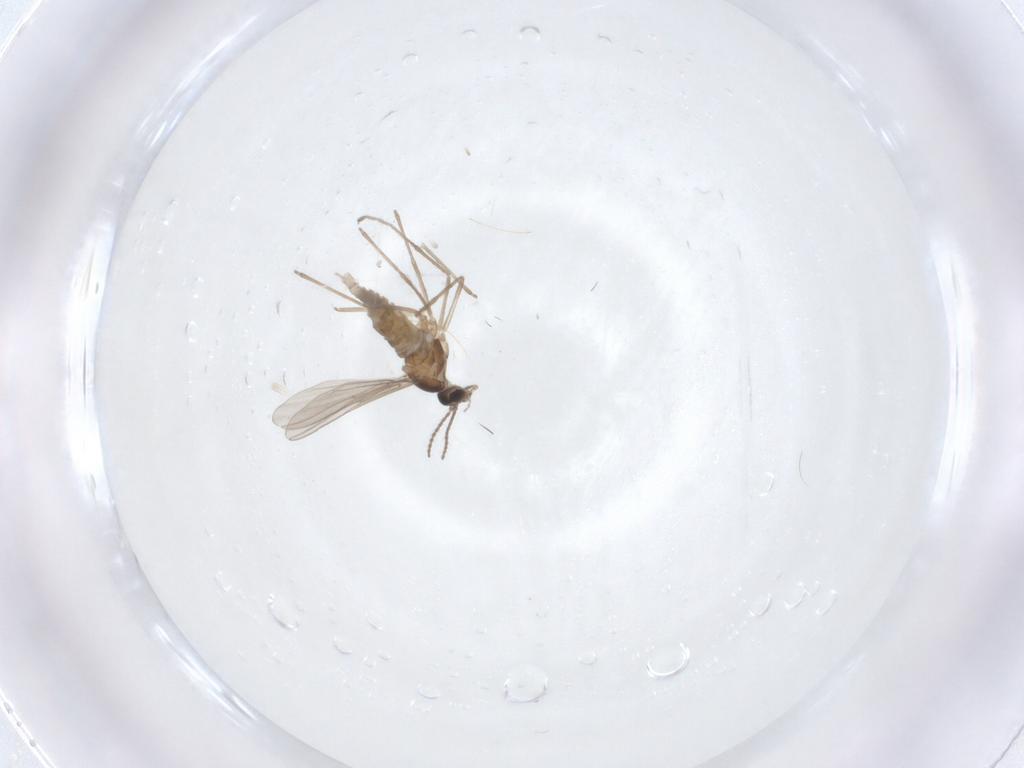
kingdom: Animalia
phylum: Arthropoda
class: Insecta
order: Diptera
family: Cecidomyiidae
